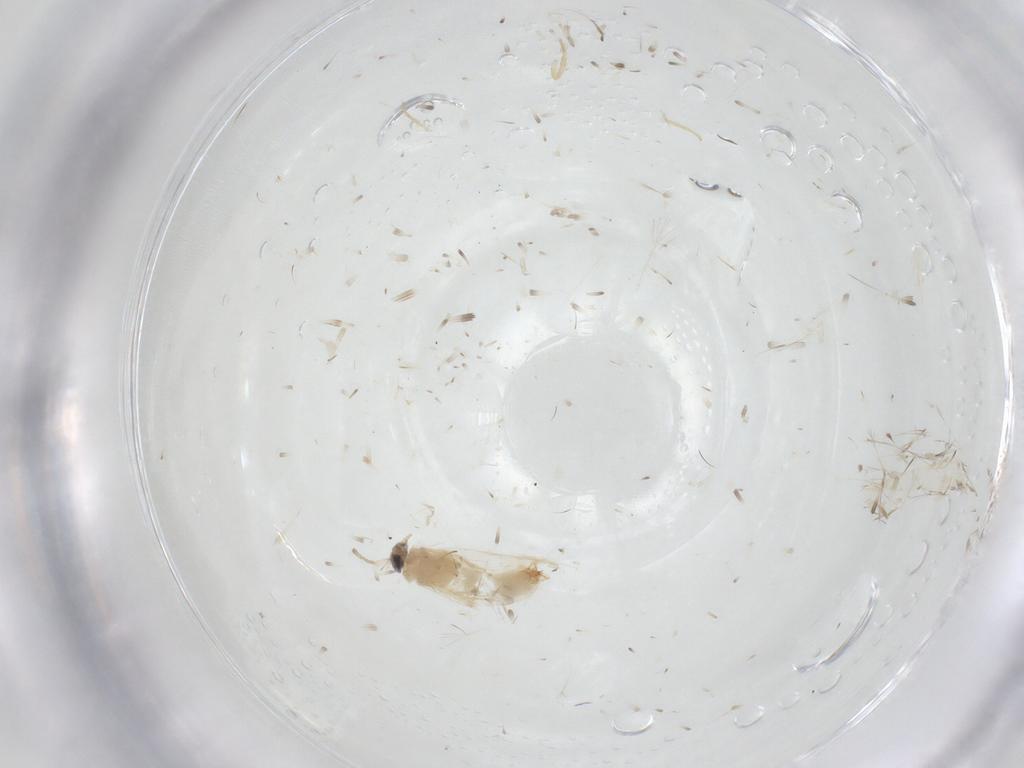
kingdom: Animalia
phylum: Arthropoda
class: Insecta
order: Lepidoptera
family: Crambidae
